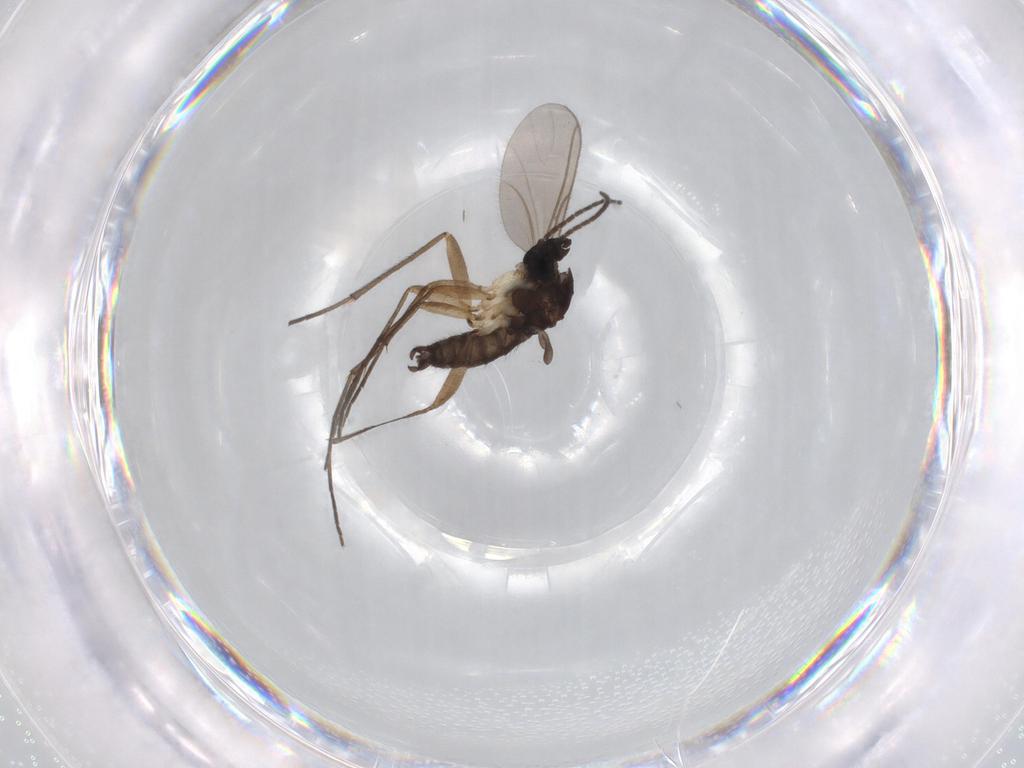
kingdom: Animalia
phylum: Arthropoda
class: Insecta
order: Diptera
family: Sciaridae
